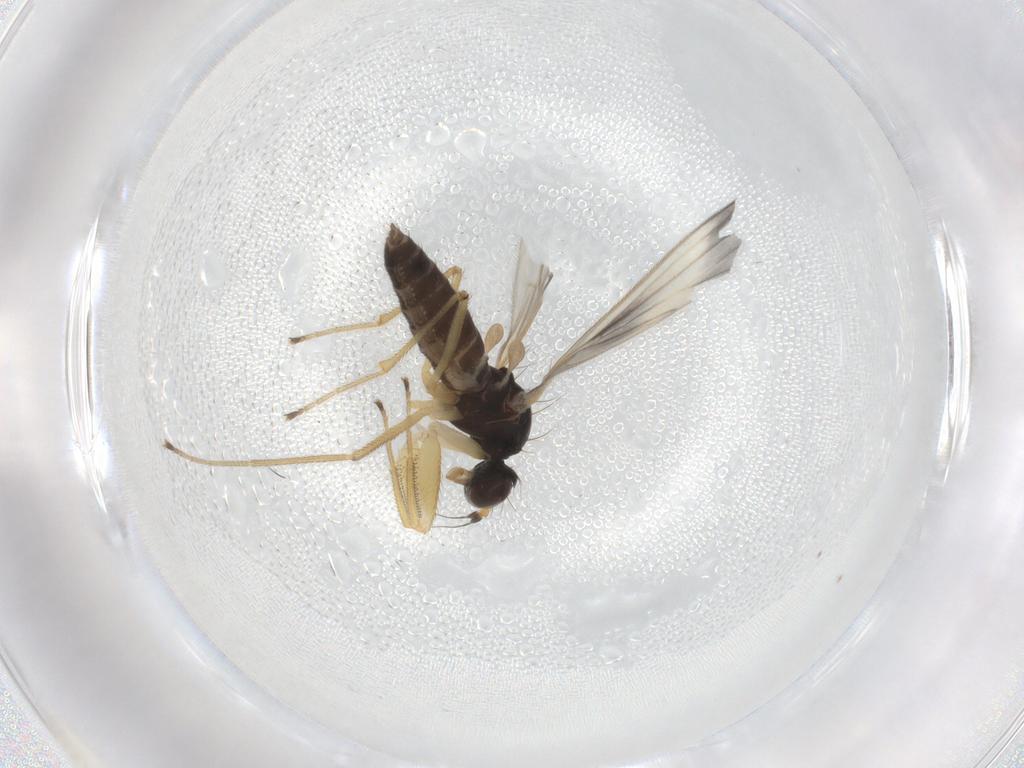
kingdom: Animalia
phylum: Arthropoda
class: Insecta
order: Diptera
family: Chironomidae
